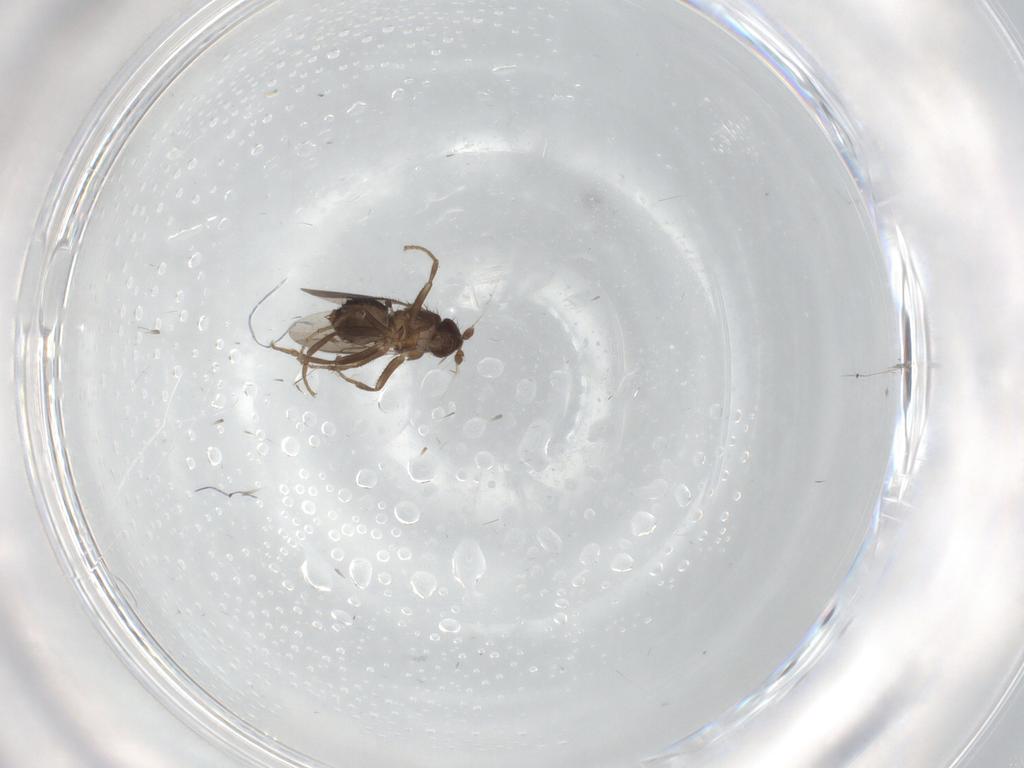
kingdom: Animalia
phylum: Arthropoda
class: Insecta
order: Diptera
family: Sphaeroceridae
